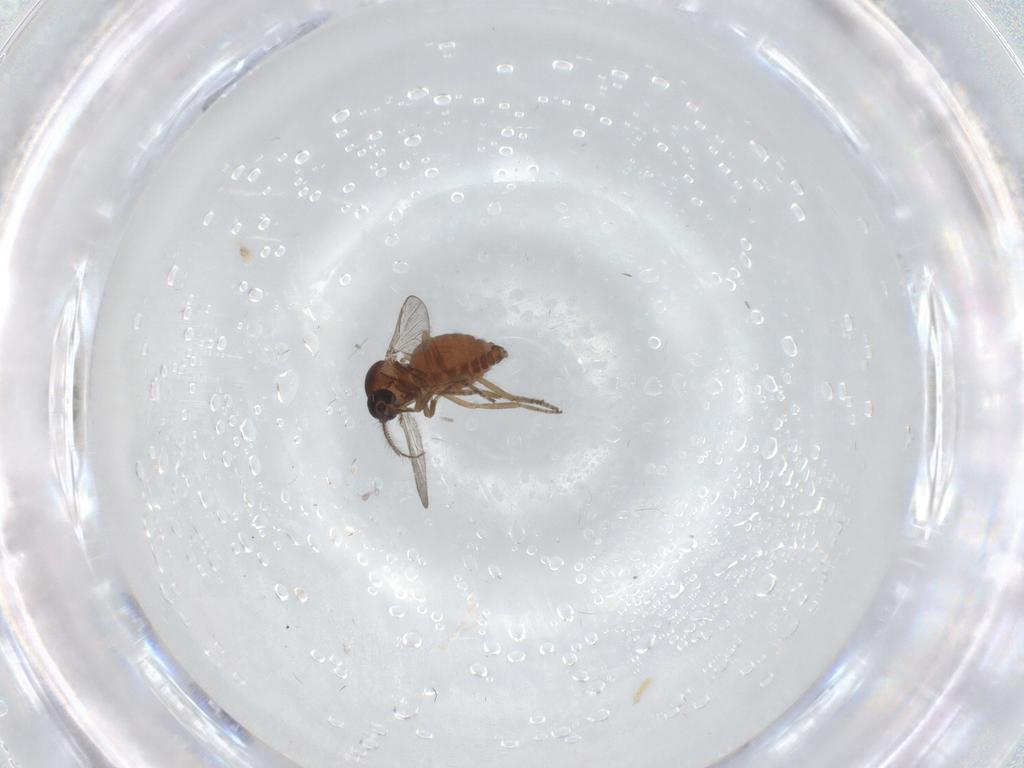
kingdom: Animalia
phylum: Arthropoda
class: Insecta
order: Diptera
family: Ceratopogonidae
